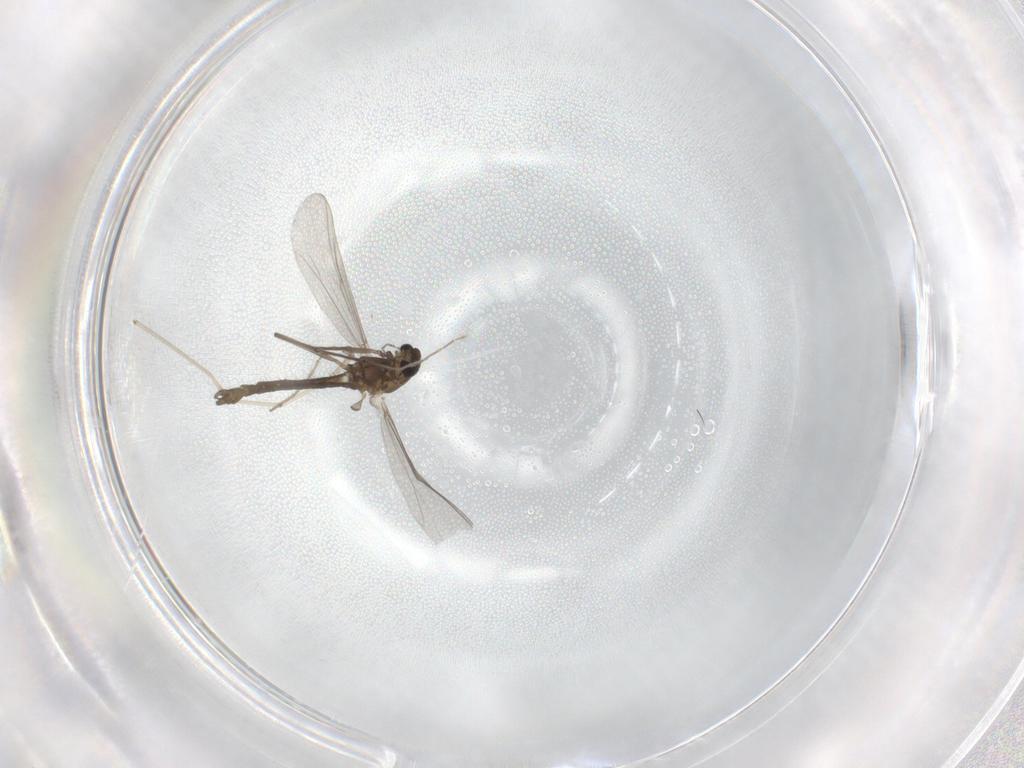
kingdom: Animalia
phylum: Arthropoda
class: Insecta
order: Diptera
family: Chironomidae
